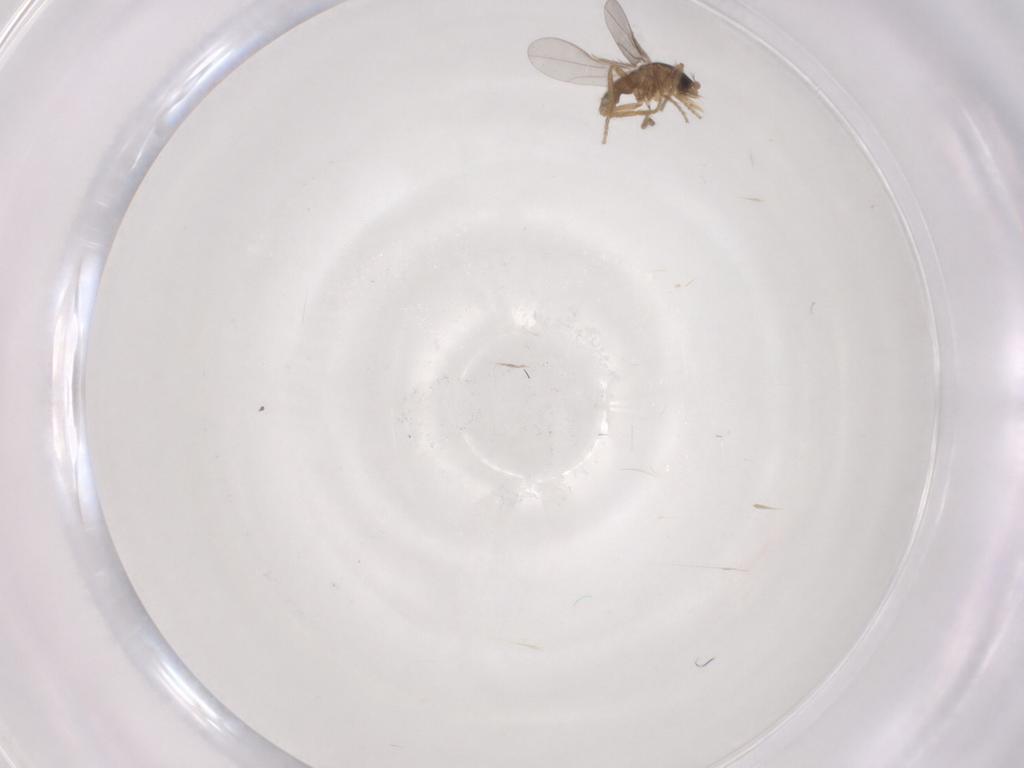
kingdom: Animalia
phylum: Arthropoda
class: Insecta
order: Diptera
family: Phoridae
